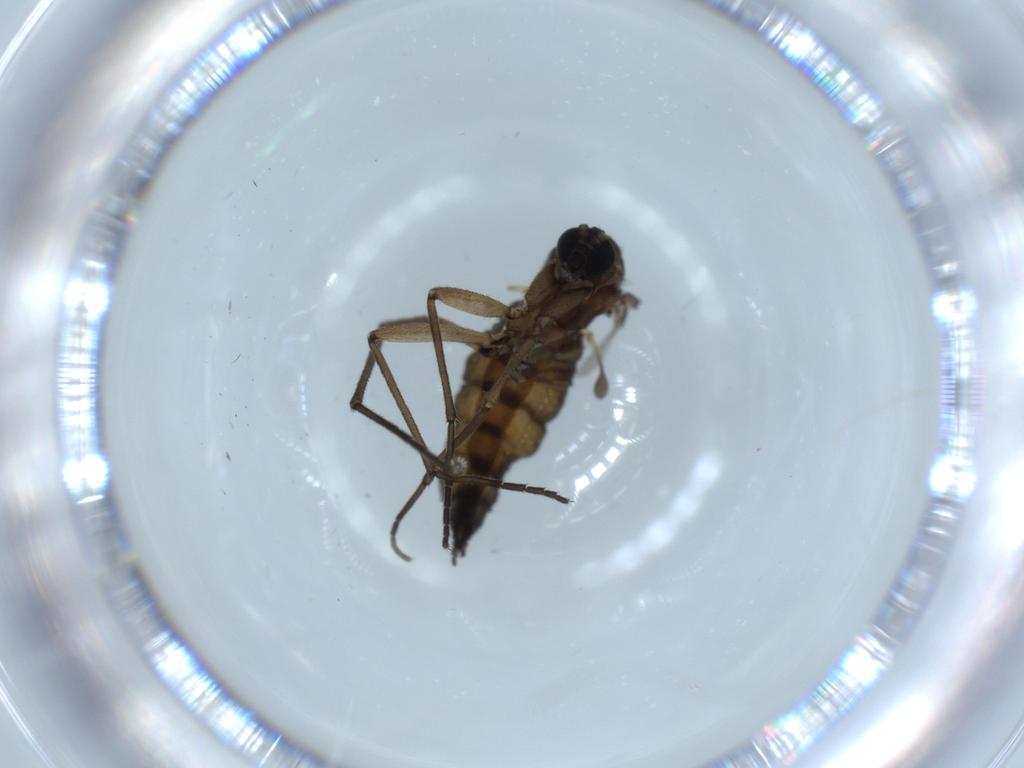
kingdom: Animalia
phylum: Arthropoda
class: Insecta
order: Diptera
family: Sciaridae
